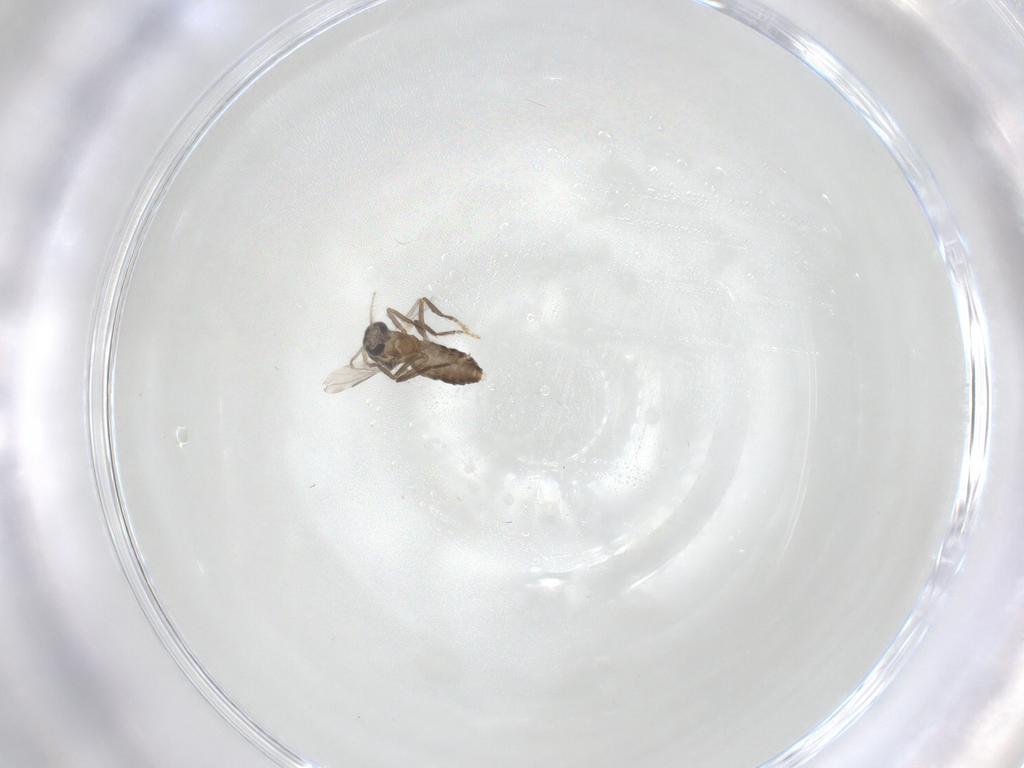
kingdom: Animalia
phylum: Arthropoda
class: Insecta
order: Diptera
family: Ceratopogonidae
